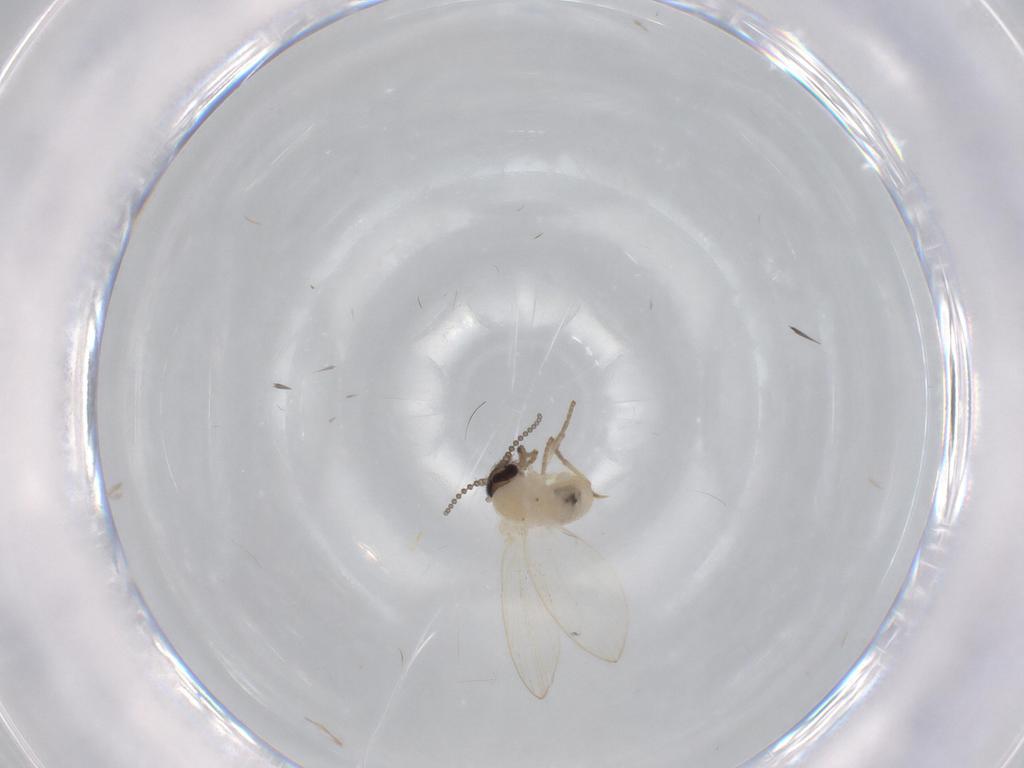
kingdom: Animalia
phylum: Arthropoda
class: Insecta
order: Diptera
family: Psychodidae
